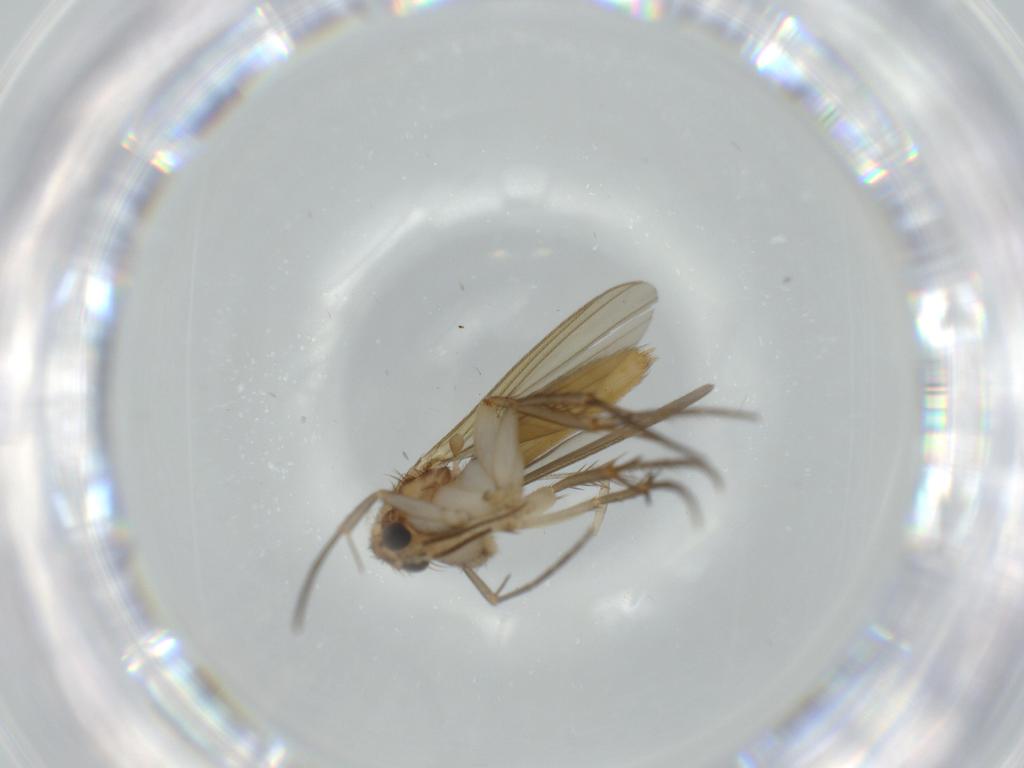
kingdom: Animalia
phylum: Arthropoda
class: Insecta
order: Diptera
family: Mycetophilidae
